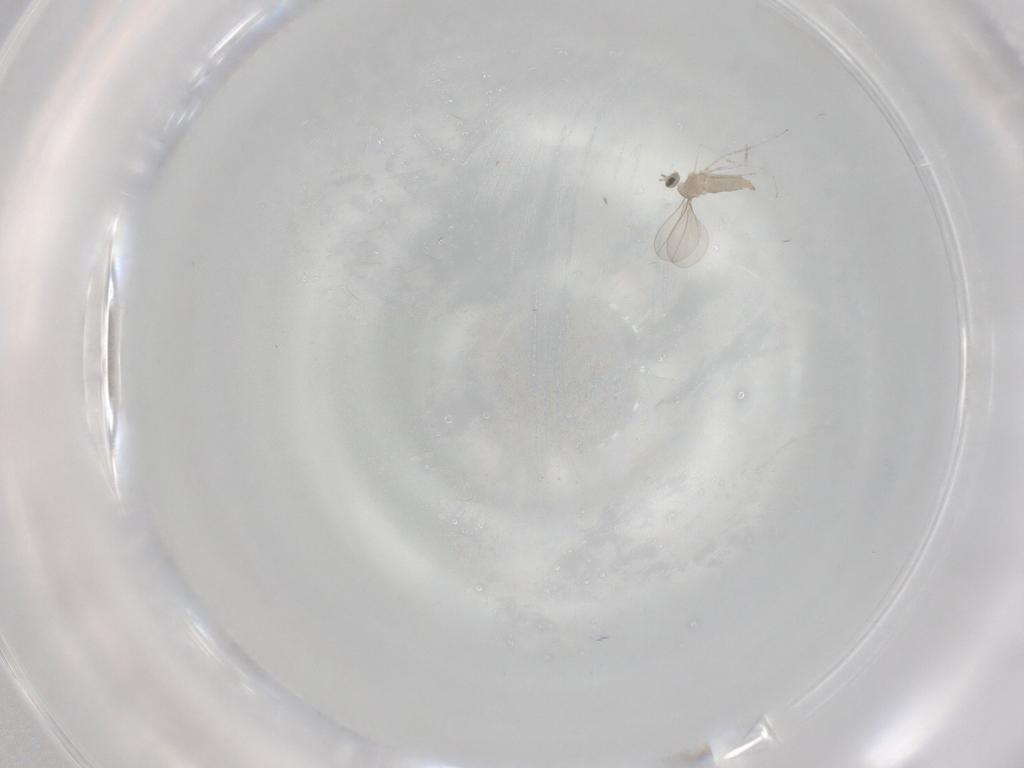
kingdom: Animalia
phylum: Arthropoda
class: Insecta
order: Diptera
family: Cecidomyiidae
